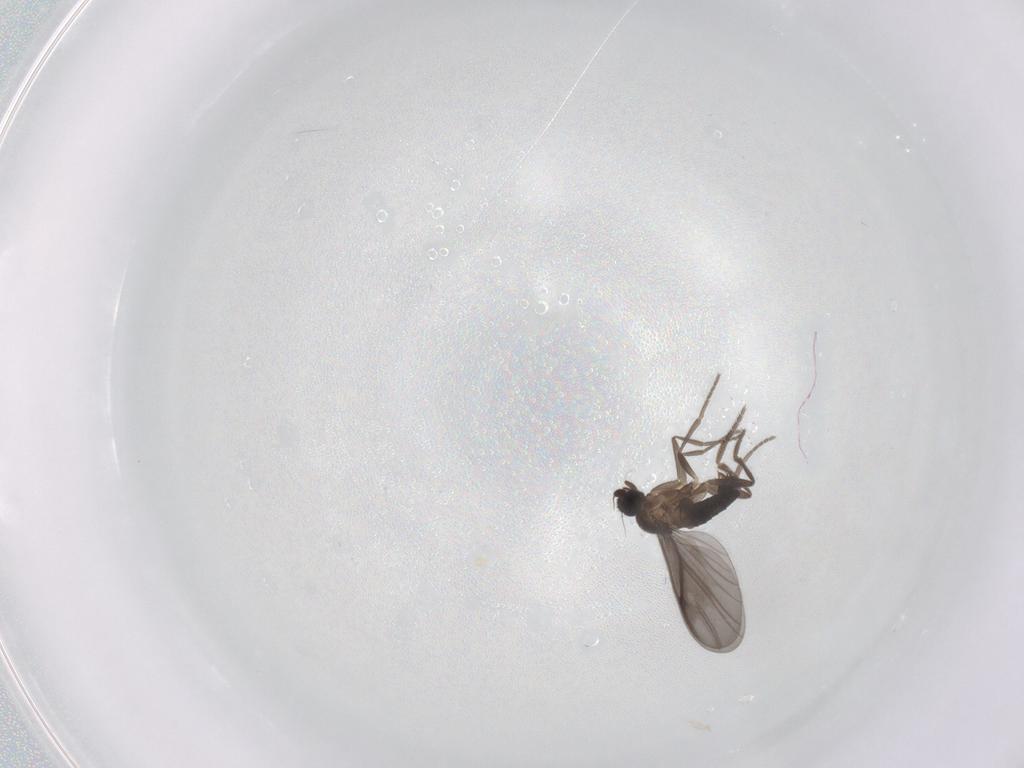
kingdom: Animalia
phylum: Arthropoda
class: Insecta
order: Diptera
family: Phoridae
